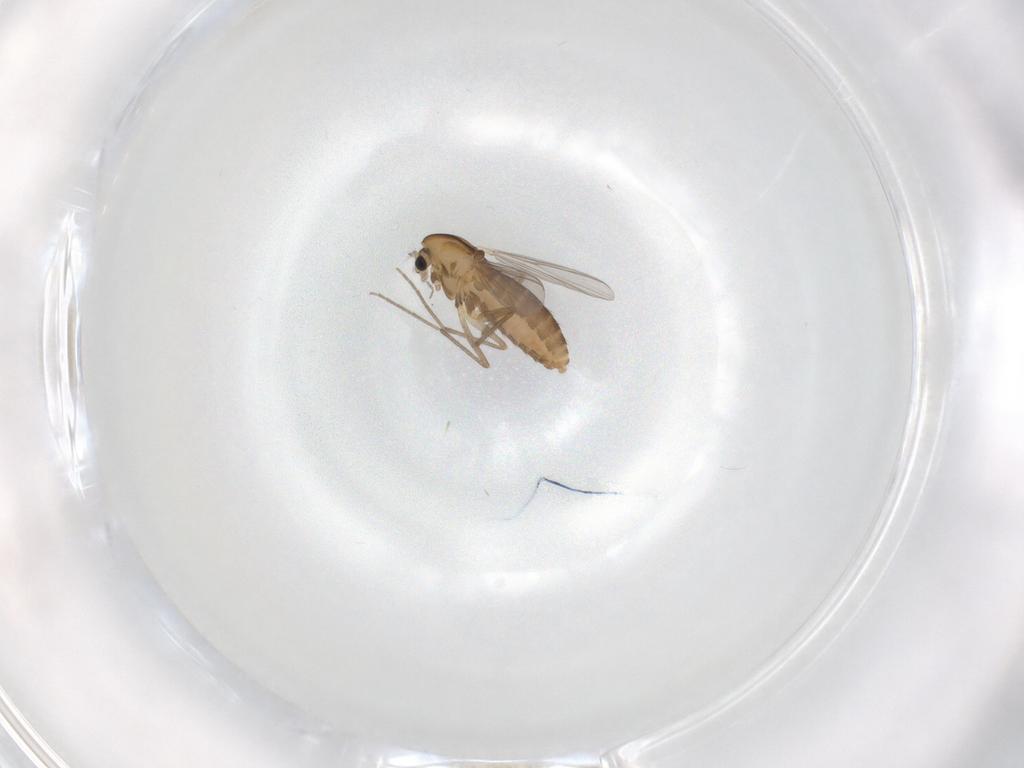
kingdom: Animalia
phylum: Arthropoda
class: Insecta
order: Diptera
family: Chironomidae
